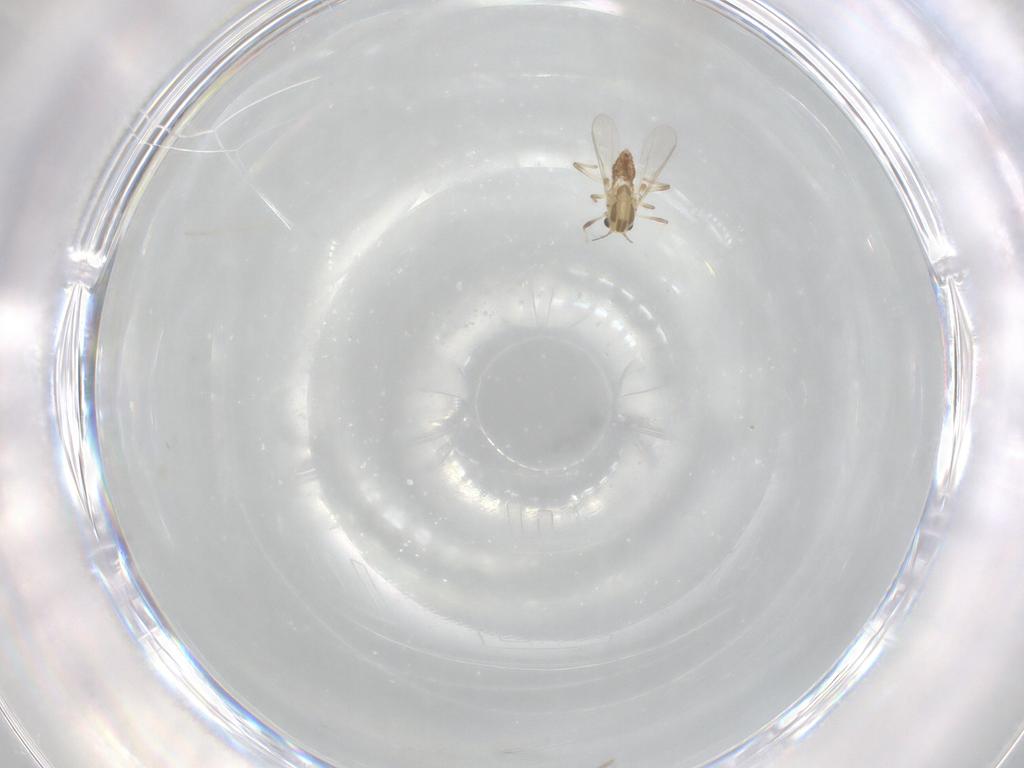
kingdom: Animalia
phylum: Arthropoda
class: Insecta
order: Diptera
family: Chironomidae
